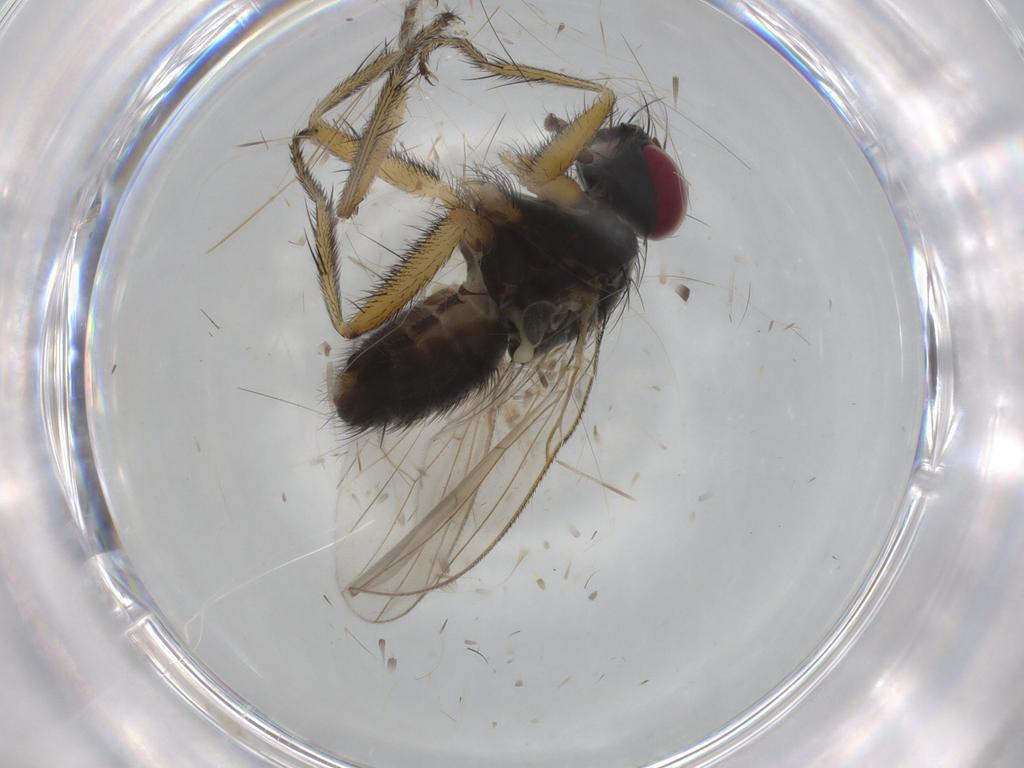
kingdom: Animalia
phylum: Arthropoda
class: Insecta
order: Diptera
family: Muscidae
